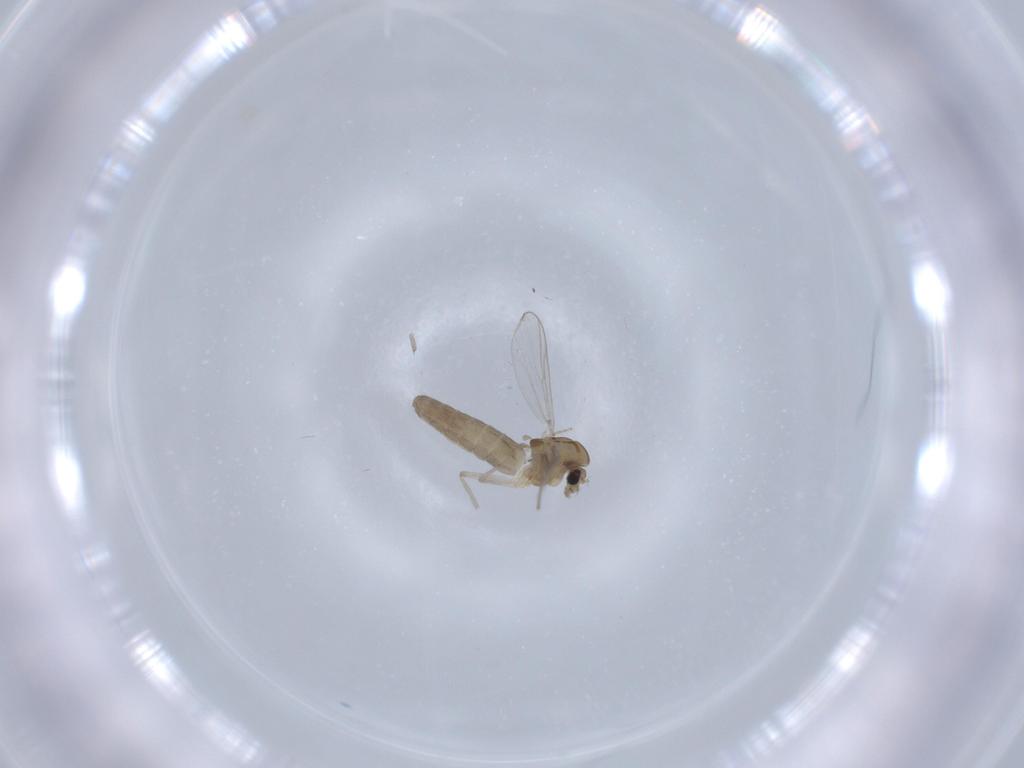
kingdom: Animalia
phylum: Arthropoda
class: Insecta
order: Diptera
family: Chironomidae
